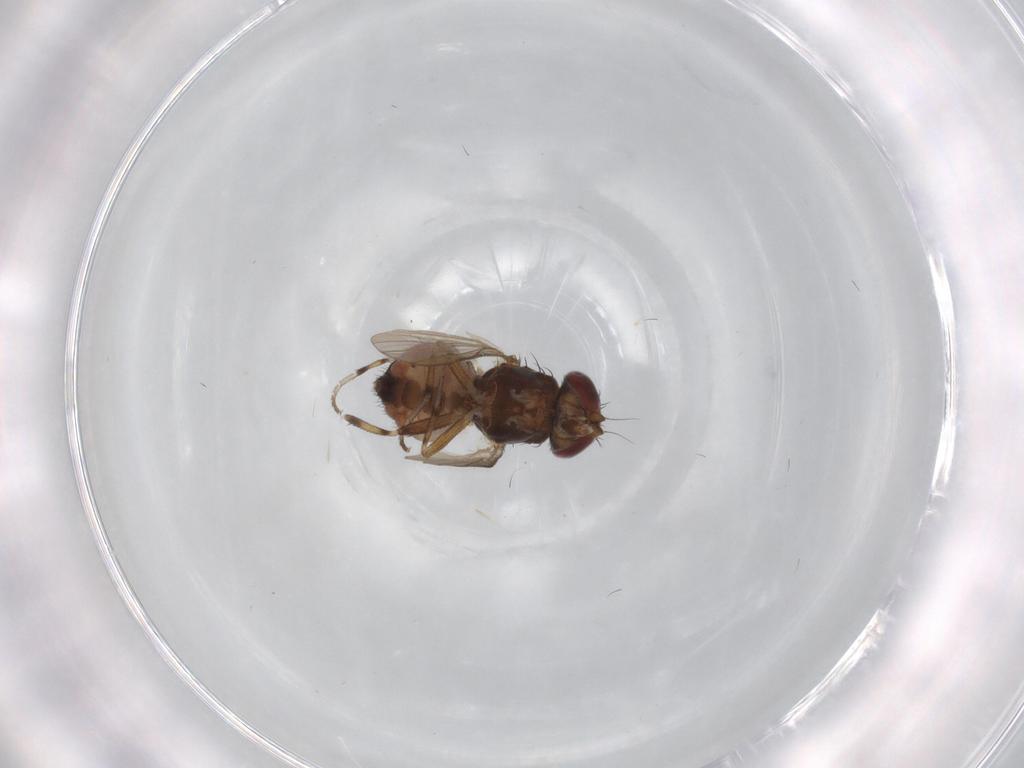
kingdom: Animalia
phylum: Arthropoda
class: Insecta
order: Diptera
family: Heleomyzidae
